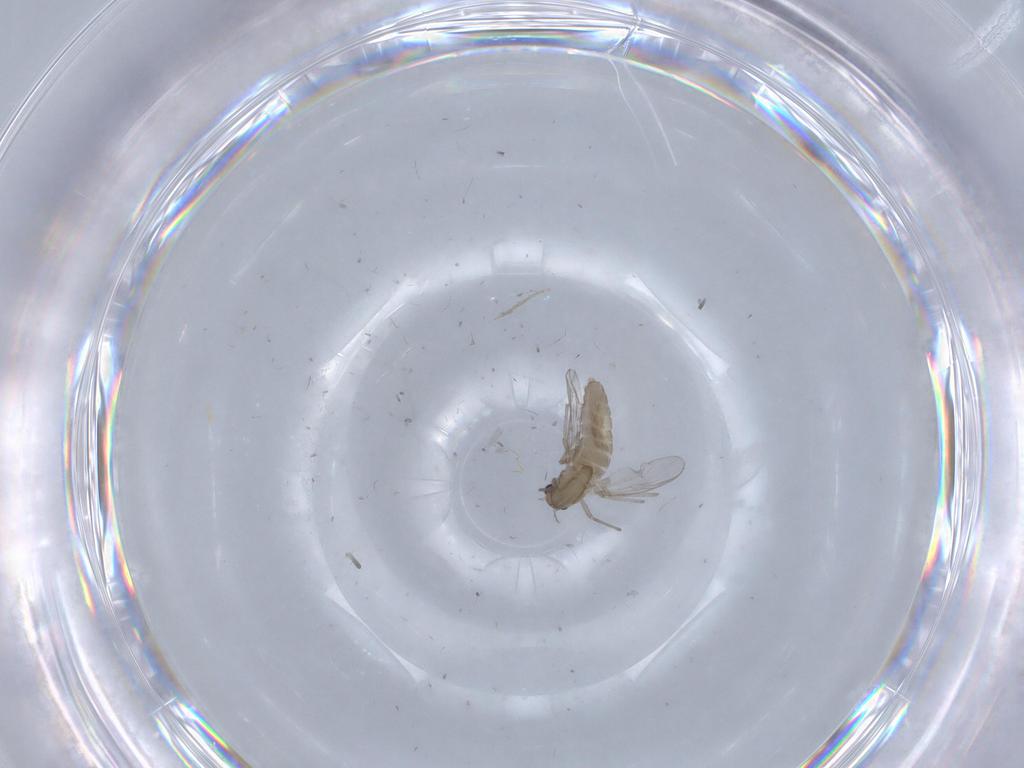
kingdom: Animalia
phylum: Arthropoda
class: Insecta
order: Diptera
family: Chironomidae
